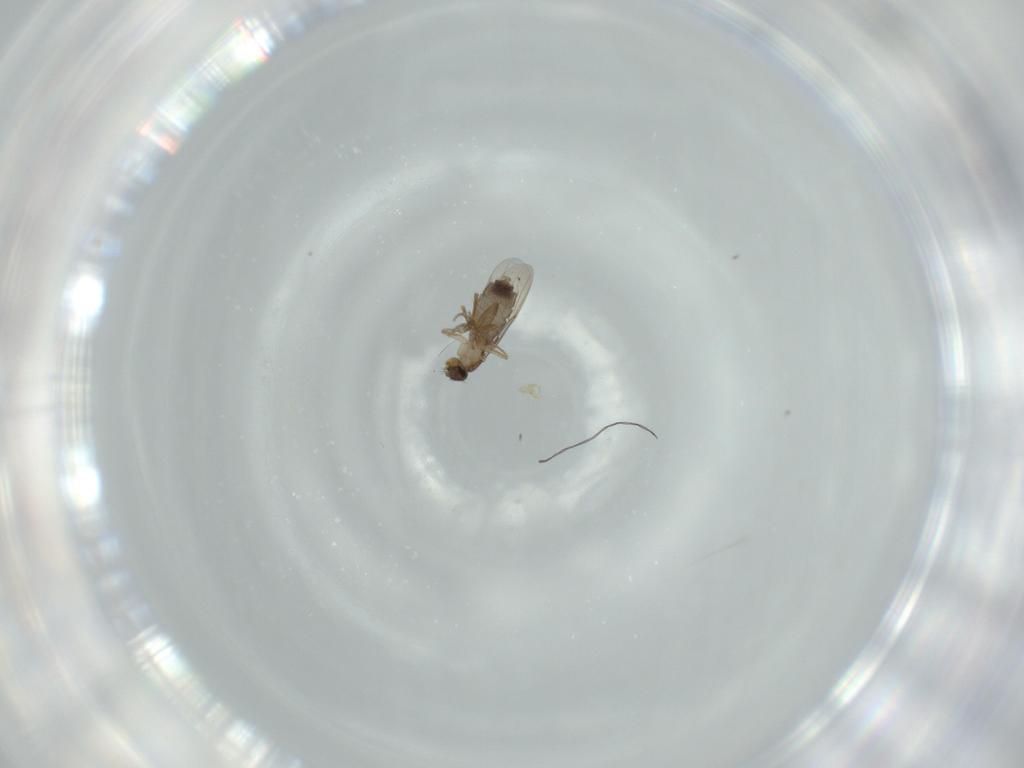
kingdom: Animalia
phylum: Arthropoda
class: Insecta
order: Diptera
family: Phoridae
